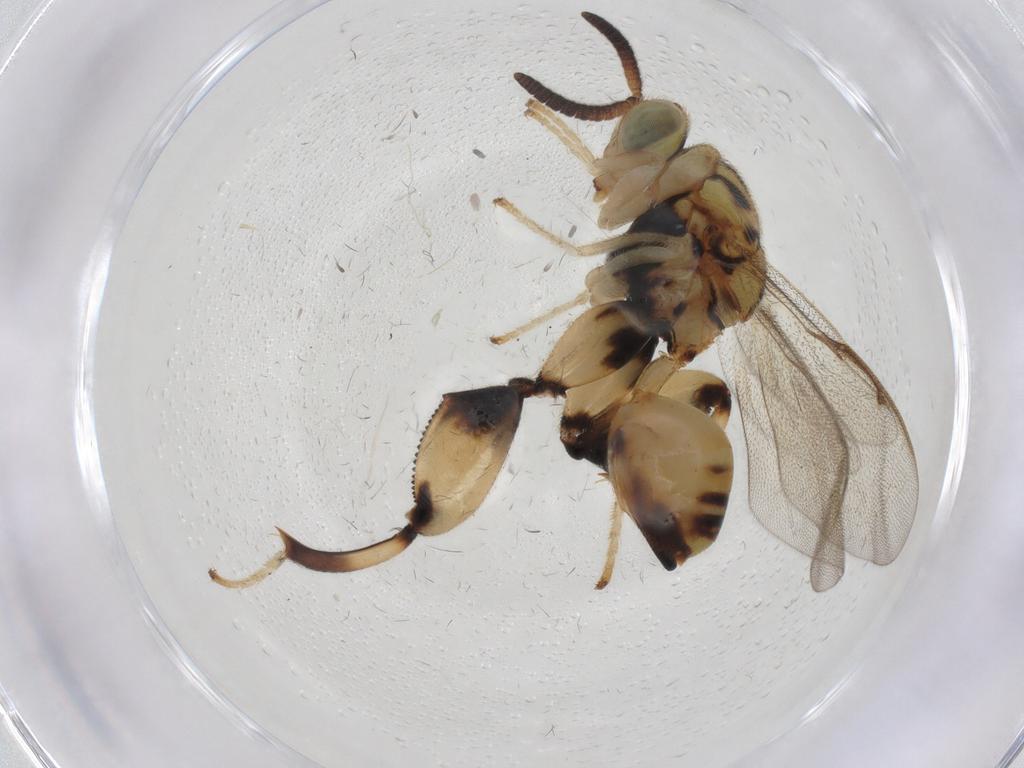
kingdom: Animalia
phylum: Arthropoda
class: Insecta
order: Hymenoptera
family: Chalcididae
